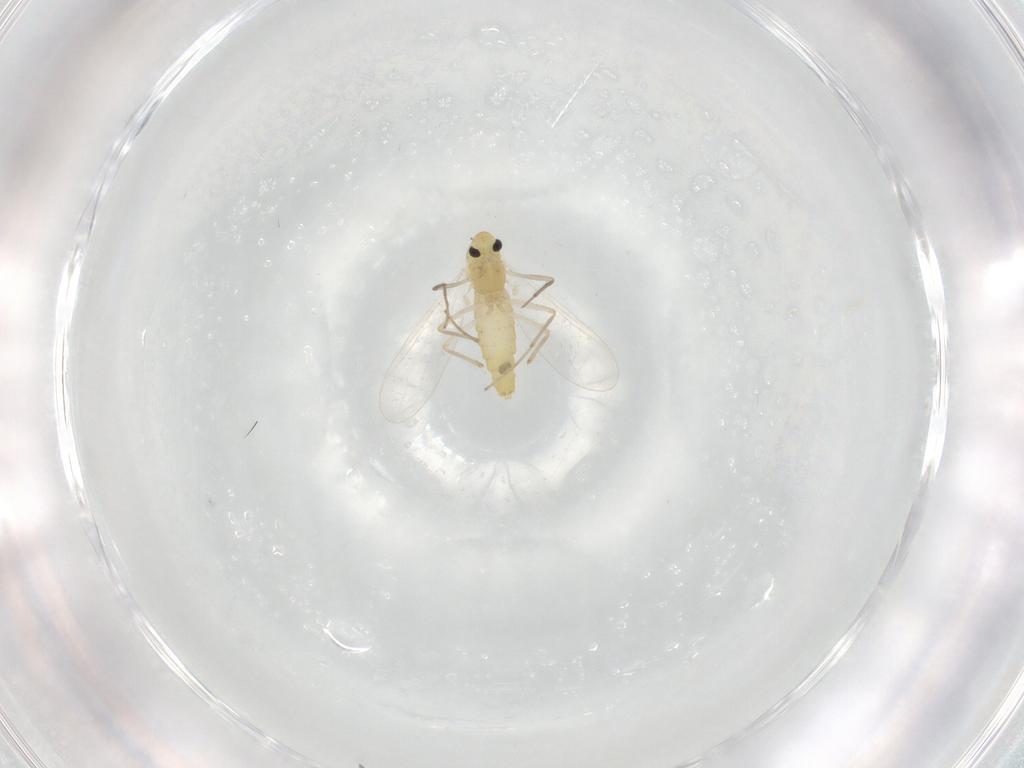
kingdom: Animalia
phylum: Arthropoda
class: Insecta
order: Diptera
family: Chironomidae
